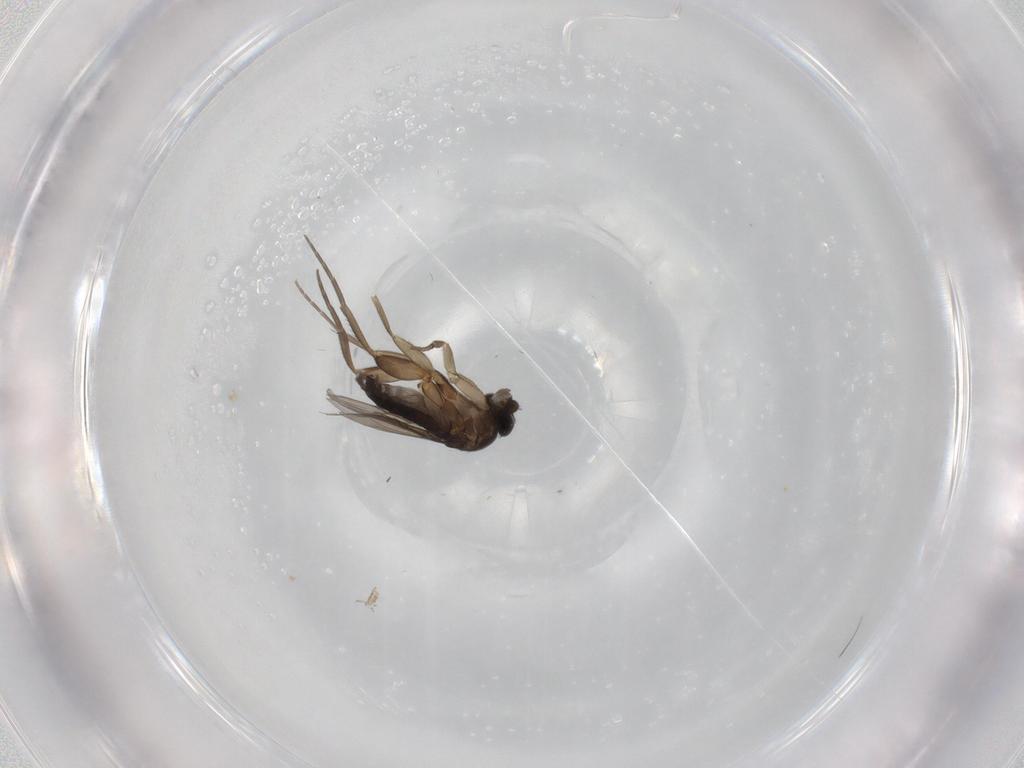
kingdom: Animalia
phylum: Arthropoda
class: Insecta
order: Diptera
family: Phoridae
